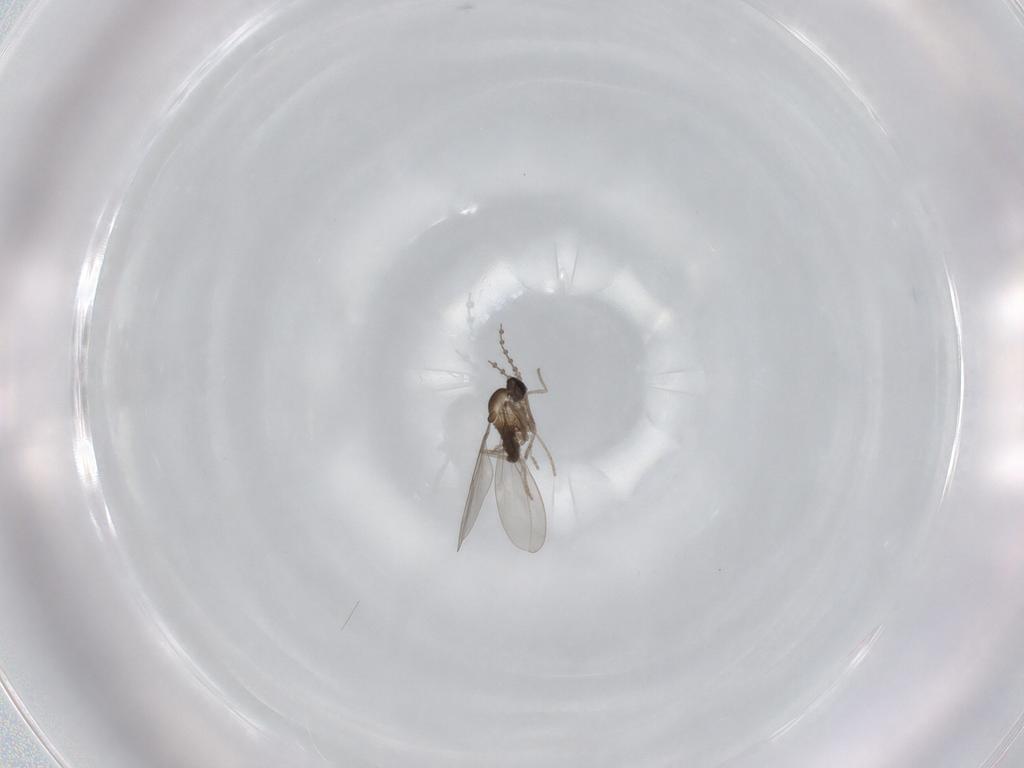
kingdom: Animalia
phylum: Arthropoda
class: Insecta
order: Diptera
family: Cecidomyiidae
